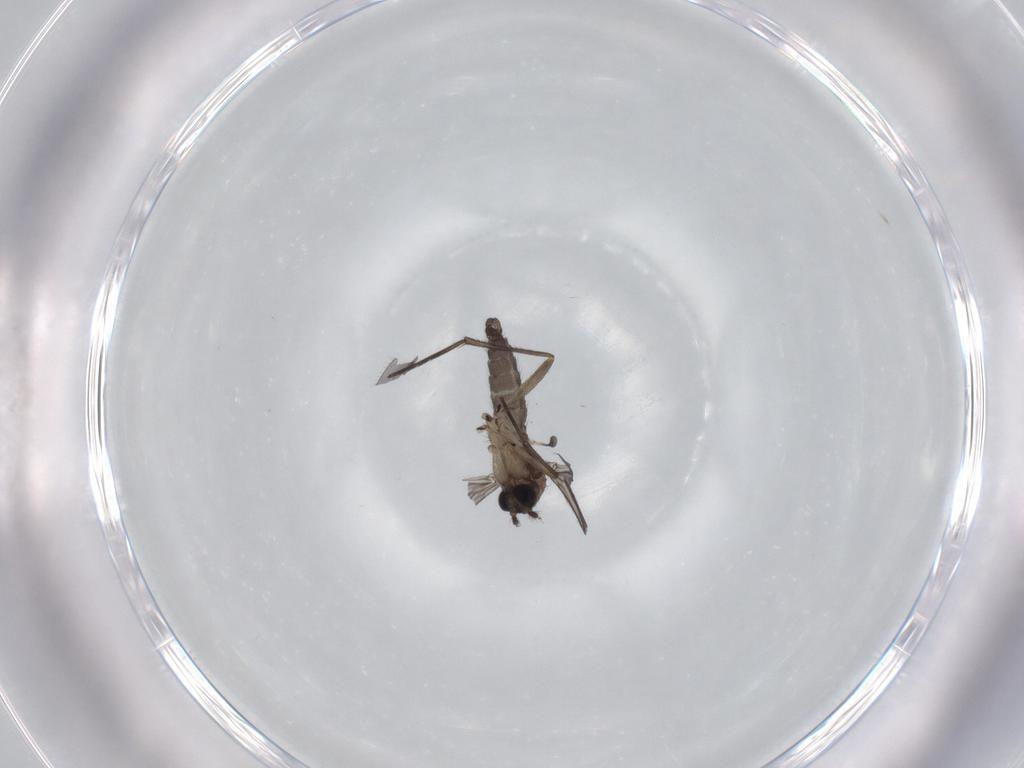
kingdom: Animalia
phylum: Arthropoda
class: Insecta
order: Diptera
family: Sciaridae
